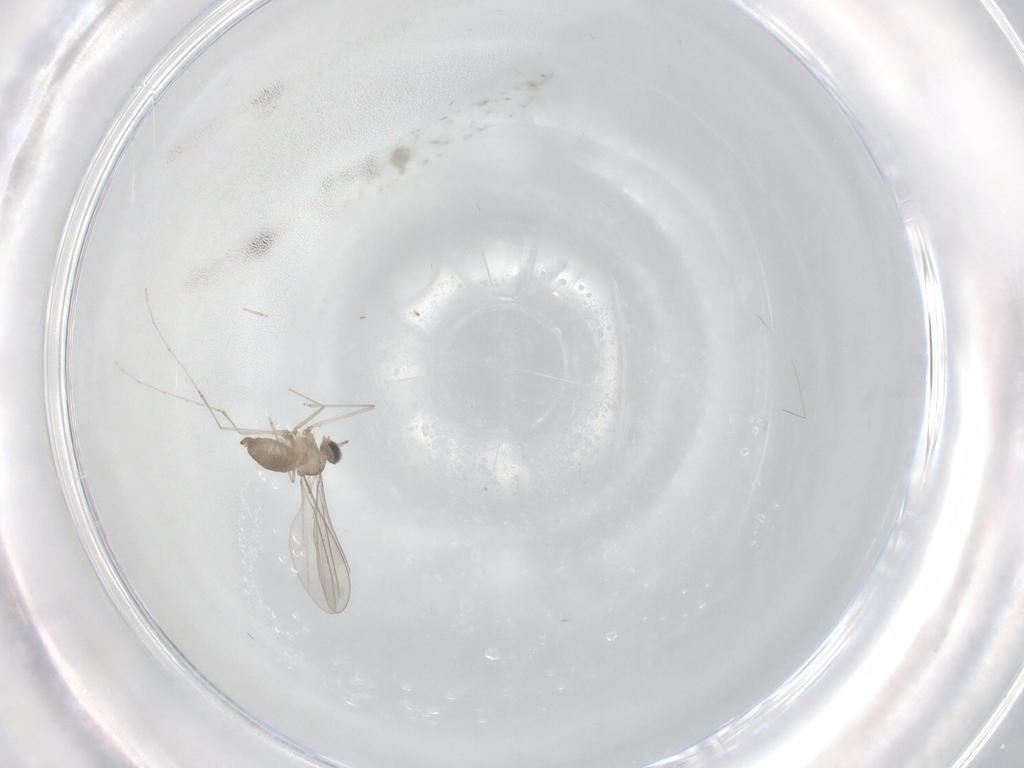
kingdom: Animalia
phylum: Arthropoda
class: Insecta
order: Diptera
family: Cecidomyiidae
